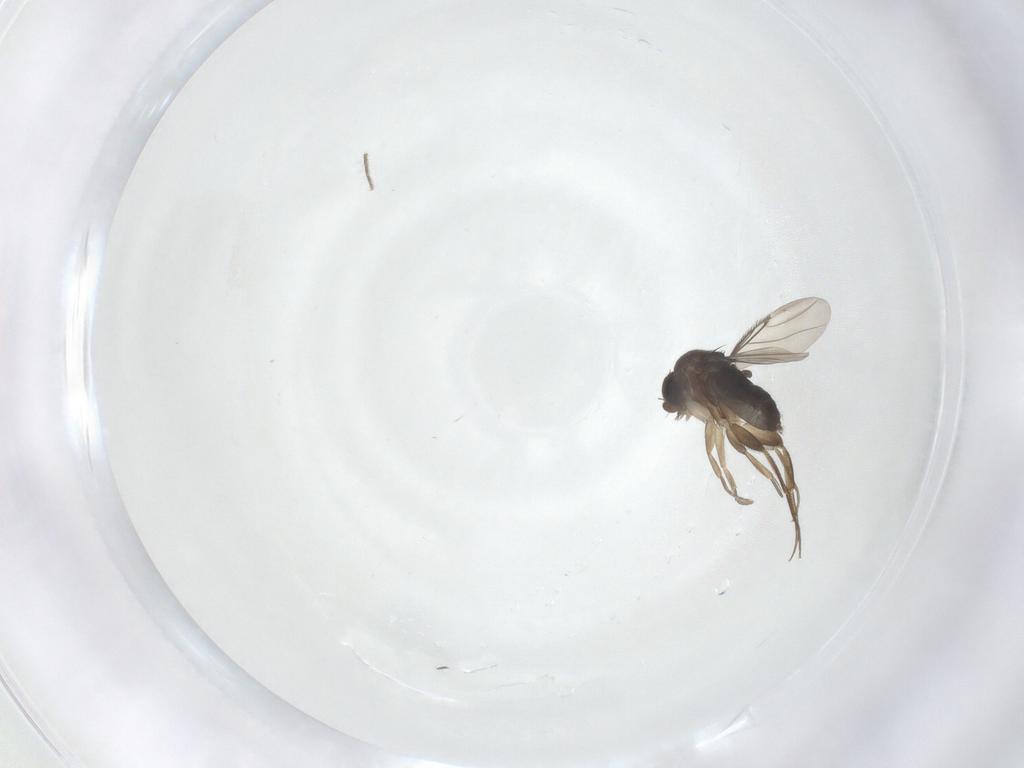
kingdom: Animalia
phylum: Arthropoda
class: Insecta
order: Diptera
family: Phoridae
